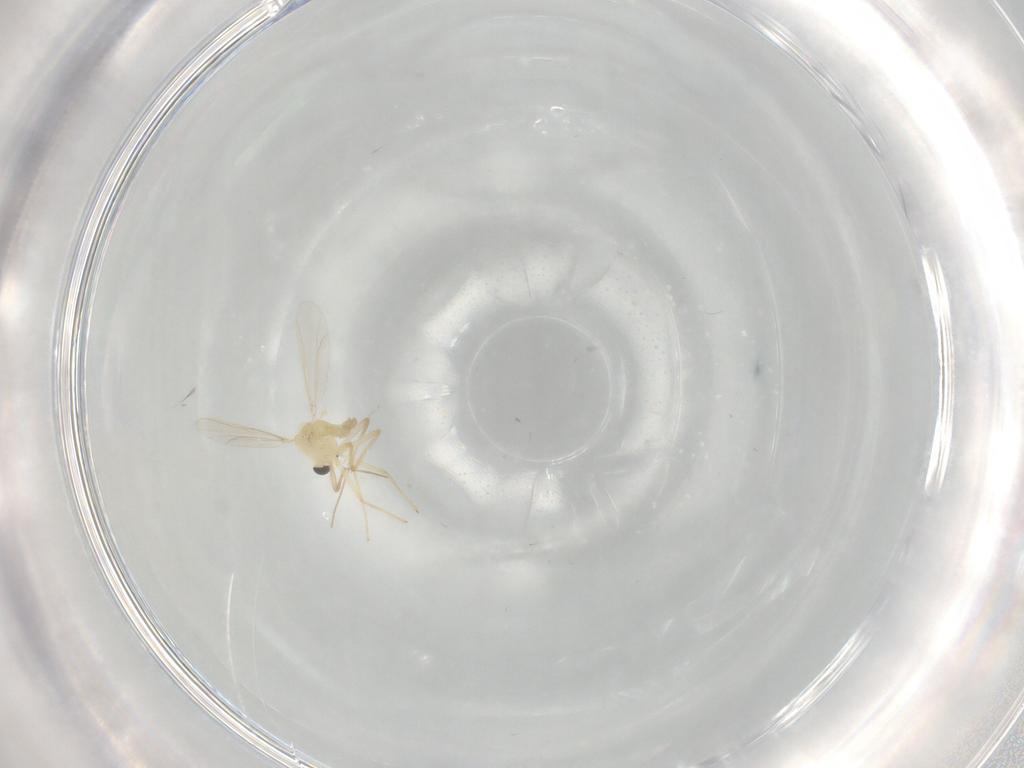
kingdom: Animalia
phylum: Arthropoda
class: Insecta
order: Diptera
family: Chironomidae
